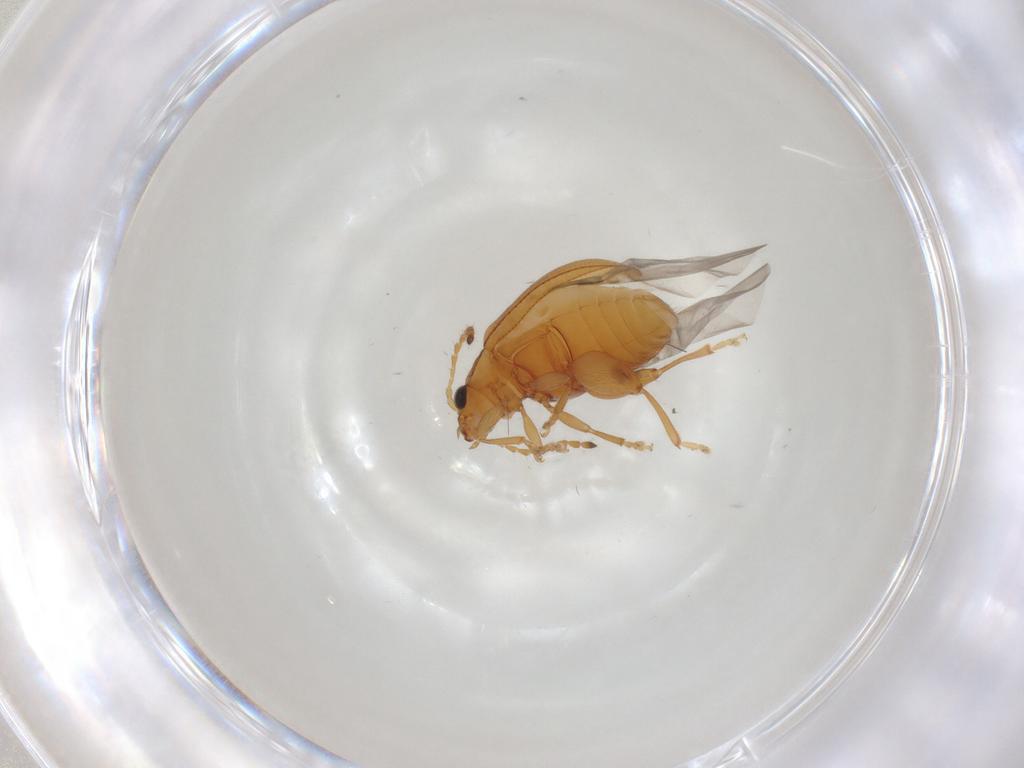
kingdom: Animalia
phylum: Arthropoda
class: Insecta
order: Coleoptera
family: Chrysomelidae
